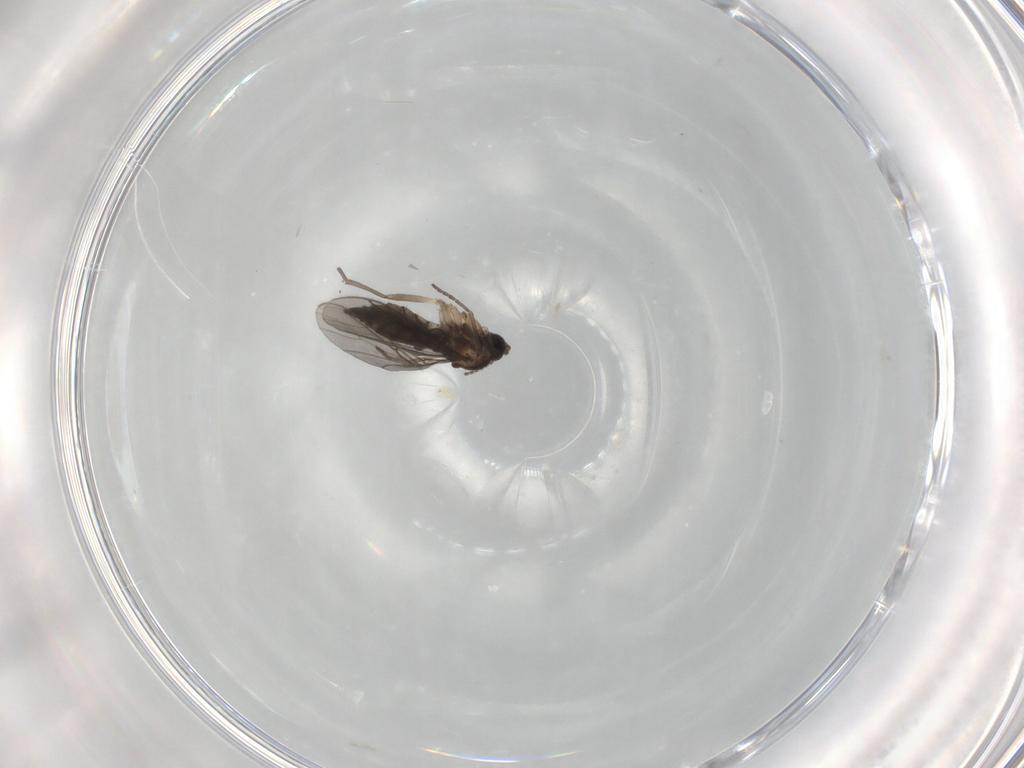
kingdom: Animalia
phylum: Arthropoda
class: Insecta
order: Diptera
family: Sciaridae
